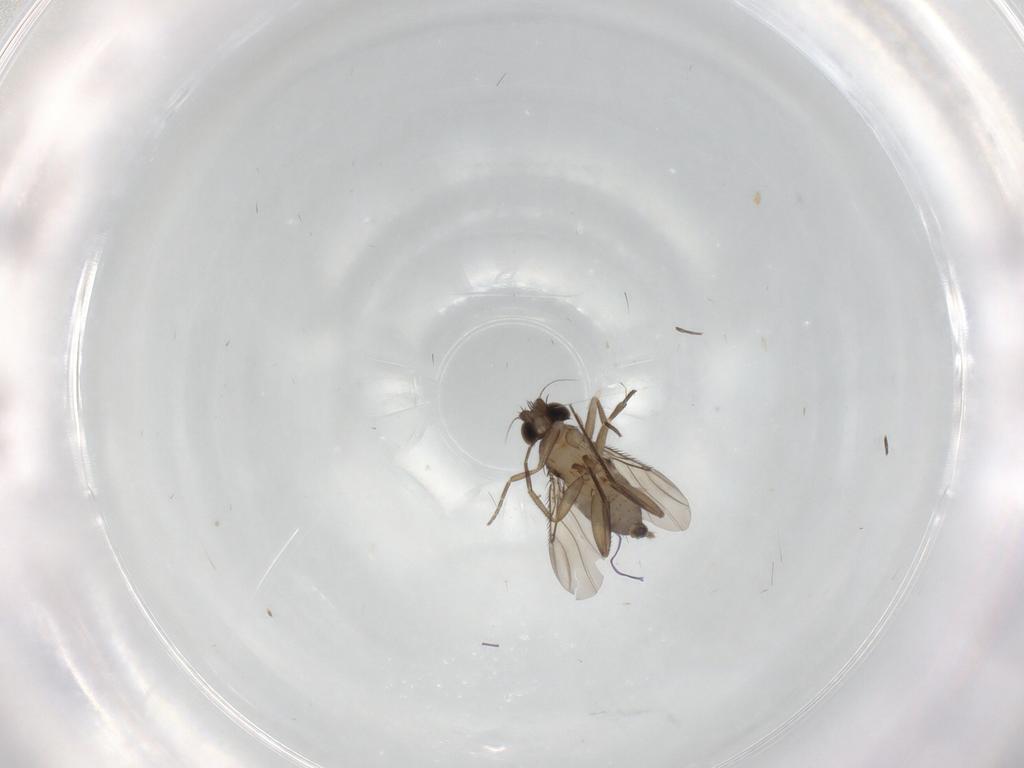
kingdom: Animalia
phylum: Arthropoda
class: Insecta
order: Diptera
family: Phoridae
